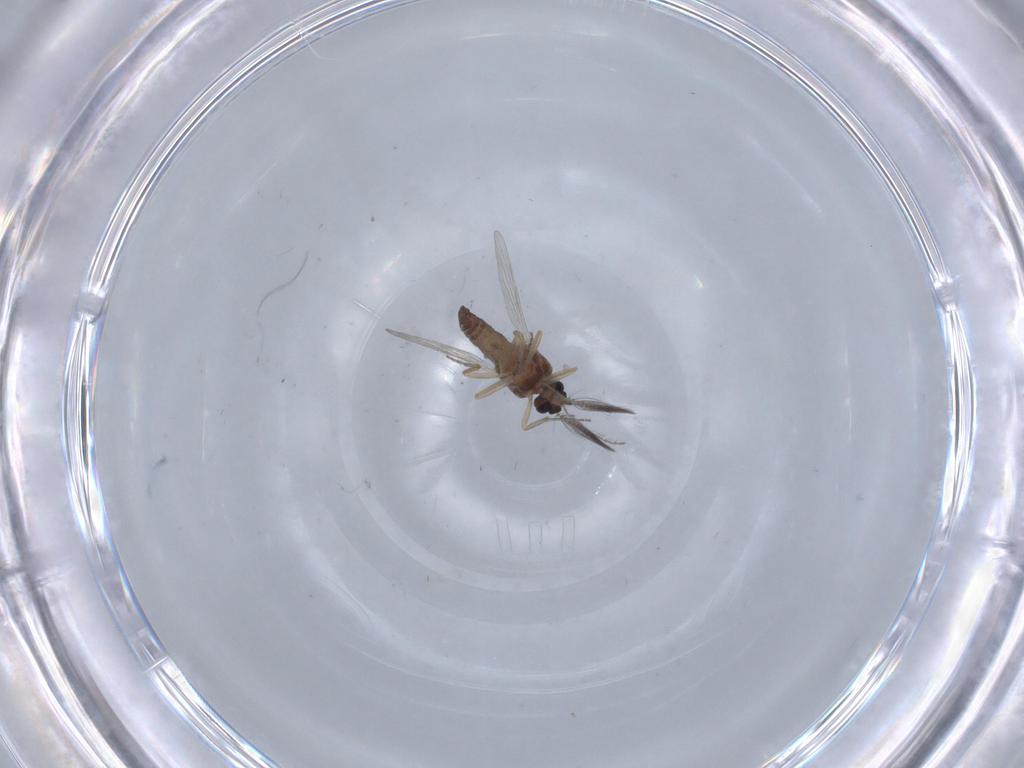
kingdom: Animalia
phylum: Arthropoda
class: Insecta
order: Diptera
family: Ceratopogonidae
